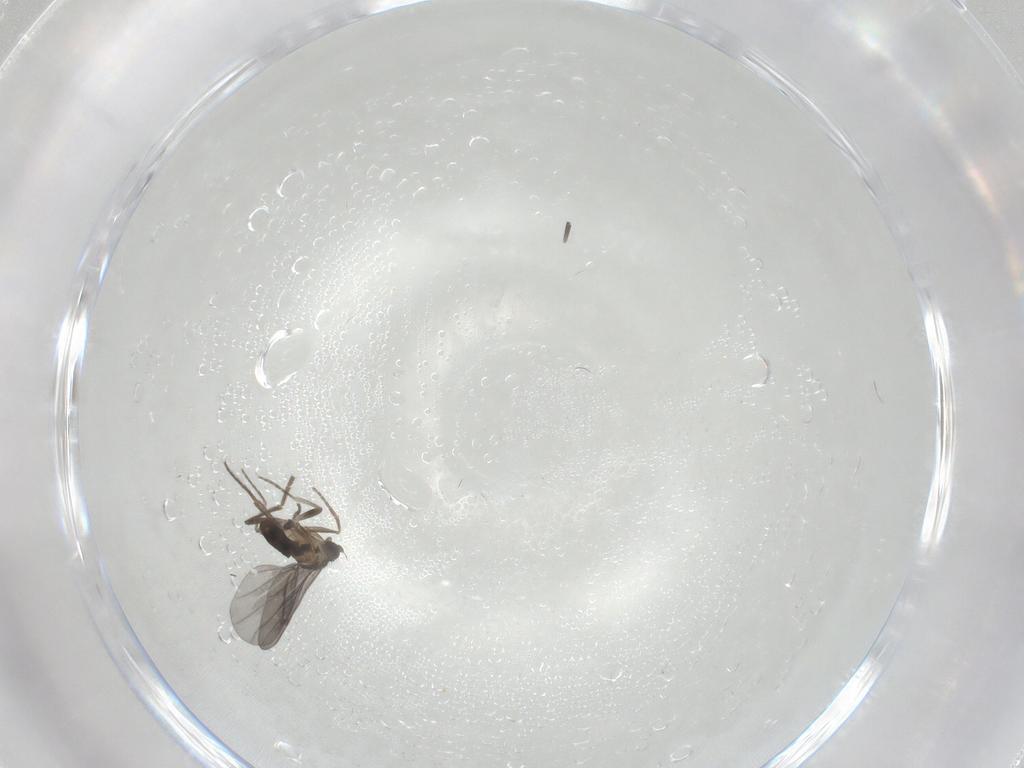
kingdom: Animalia
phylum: Arthropoda
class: Insecta
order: Diptera
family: Phoridae
